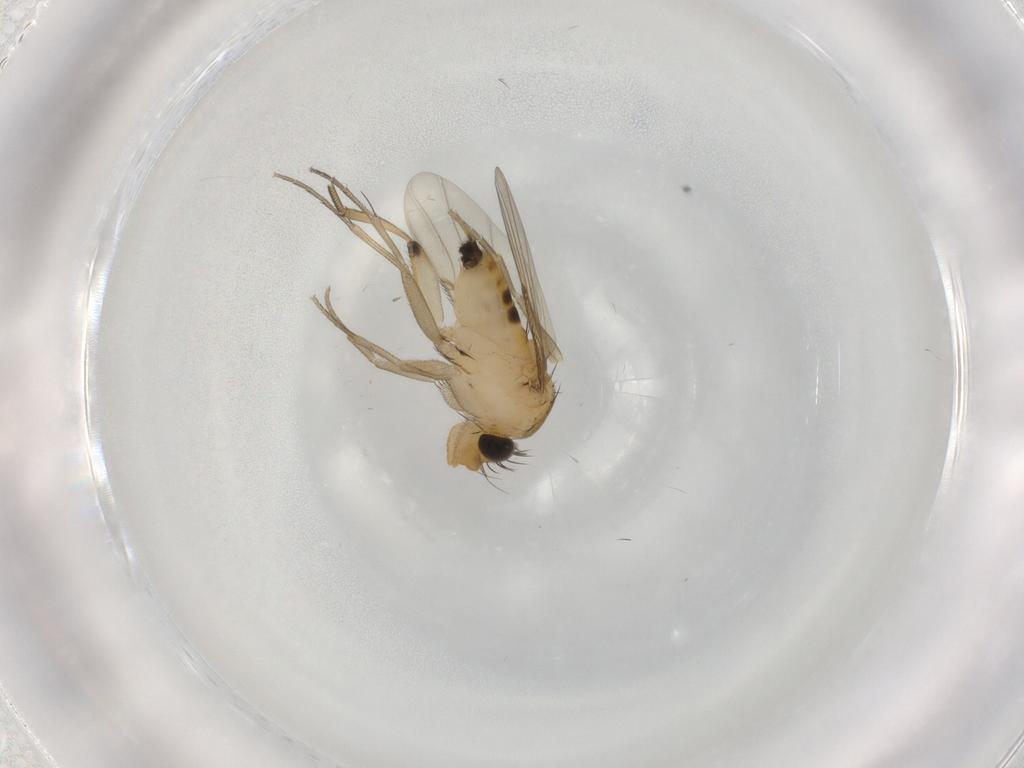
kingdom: Animalia
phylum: Arthropoda
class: Insecta
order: Diptera
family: Phoridae
